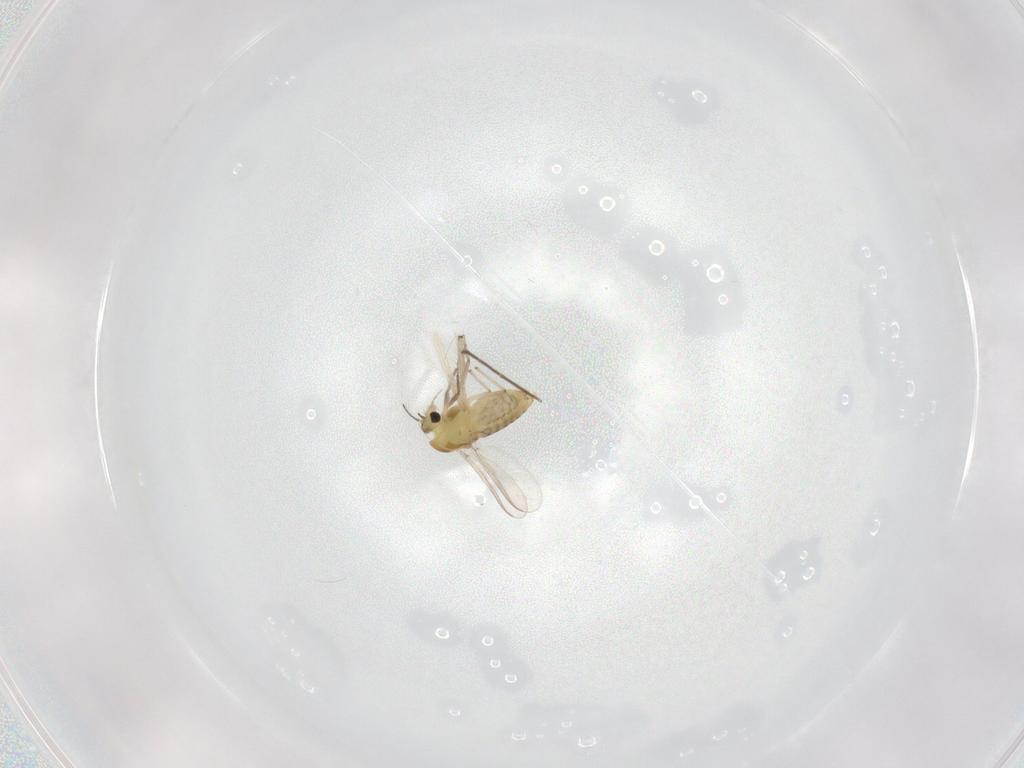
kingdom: Animalia
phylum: Arthropoda
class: Insecta
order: Diptera
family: Chironomidae
